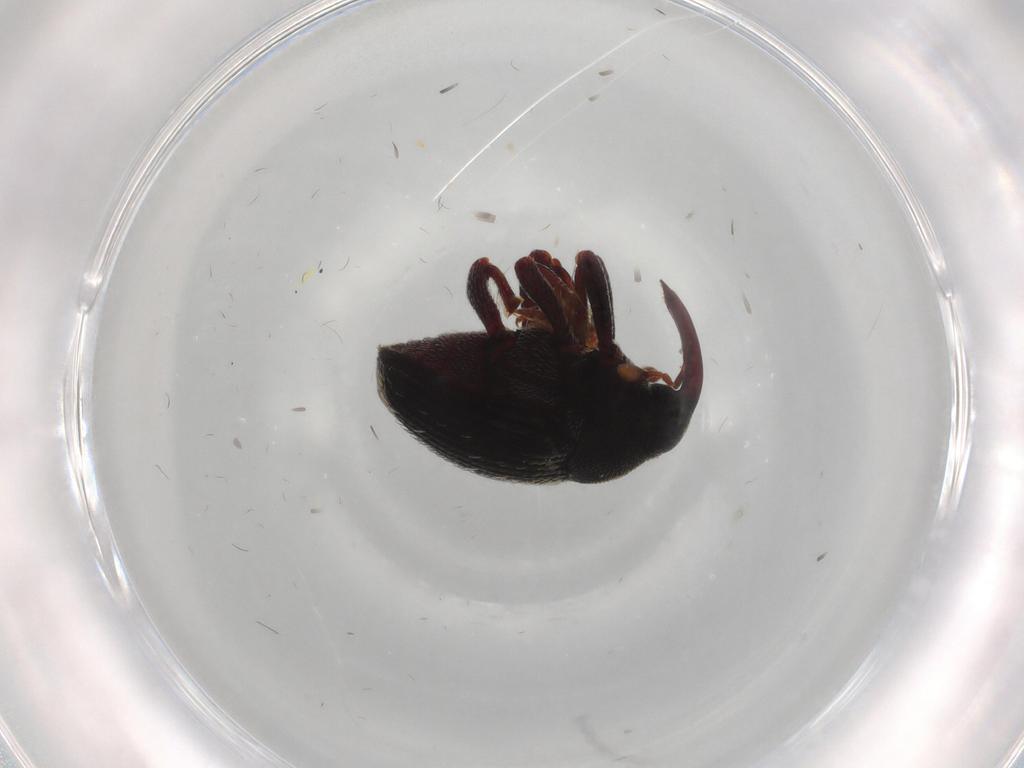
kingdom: Animalia
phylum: Arthropoda
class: Insecta
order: Coleoptera
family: Curculionidae
